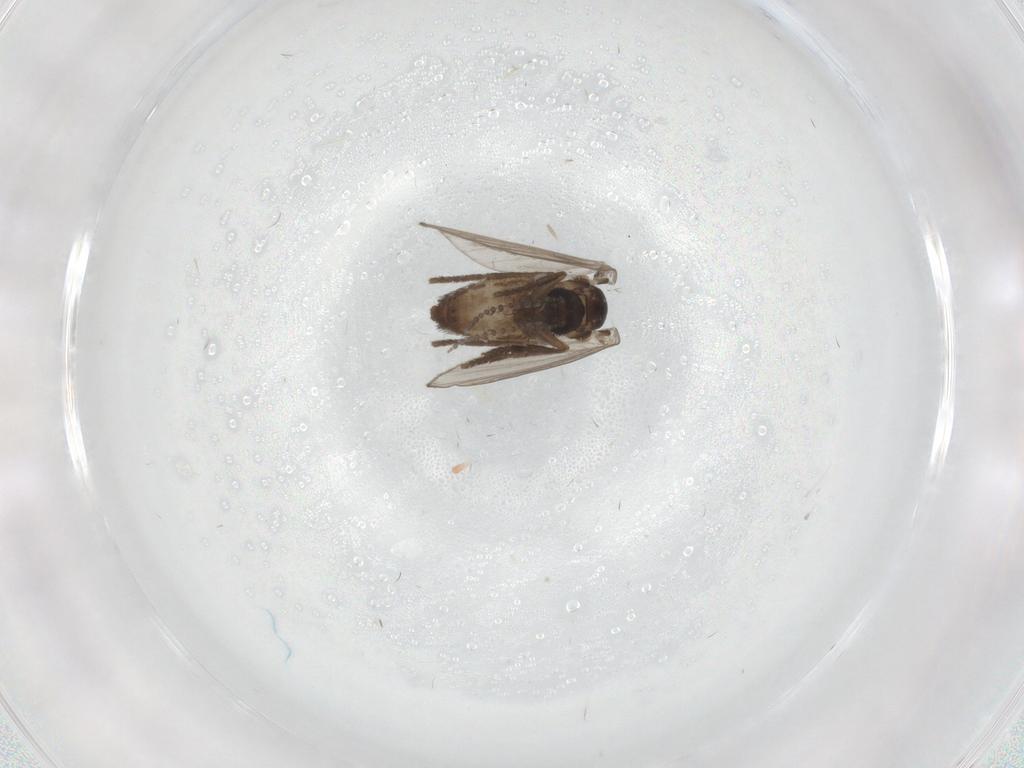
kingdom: Animalia
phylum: Arthropoda
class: Insecta
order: Diptera
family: Psychodidae
